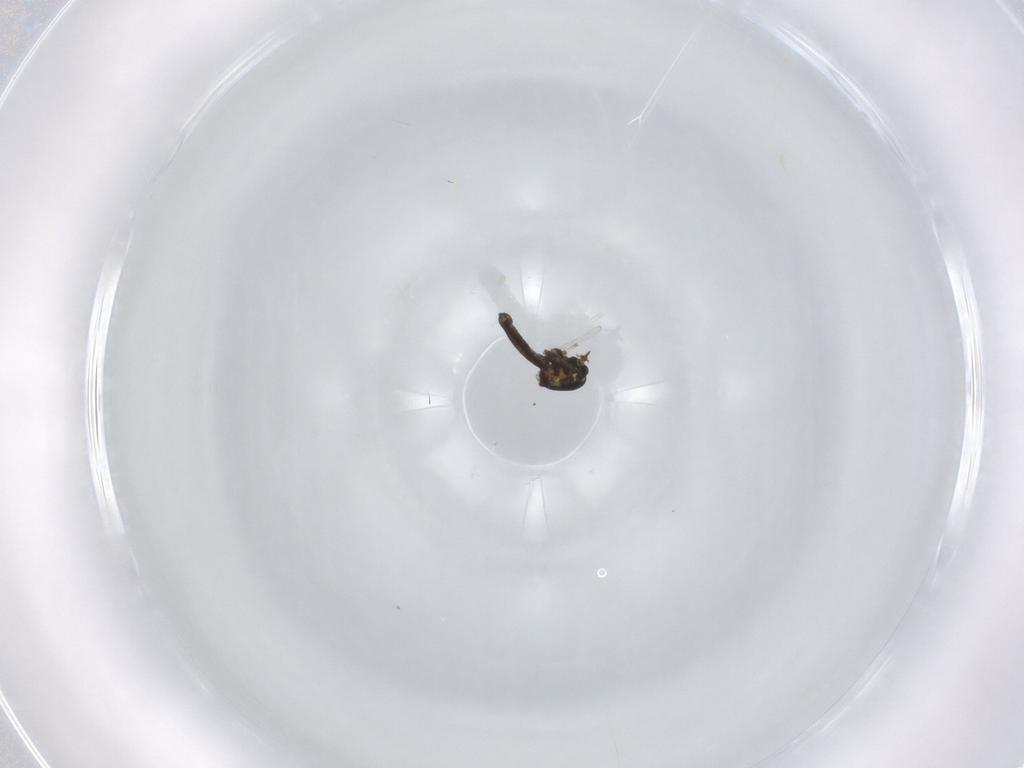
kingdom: Animalia
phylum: Arthropoda
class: Insecta
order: Diptera
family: Ceratopogonidae
